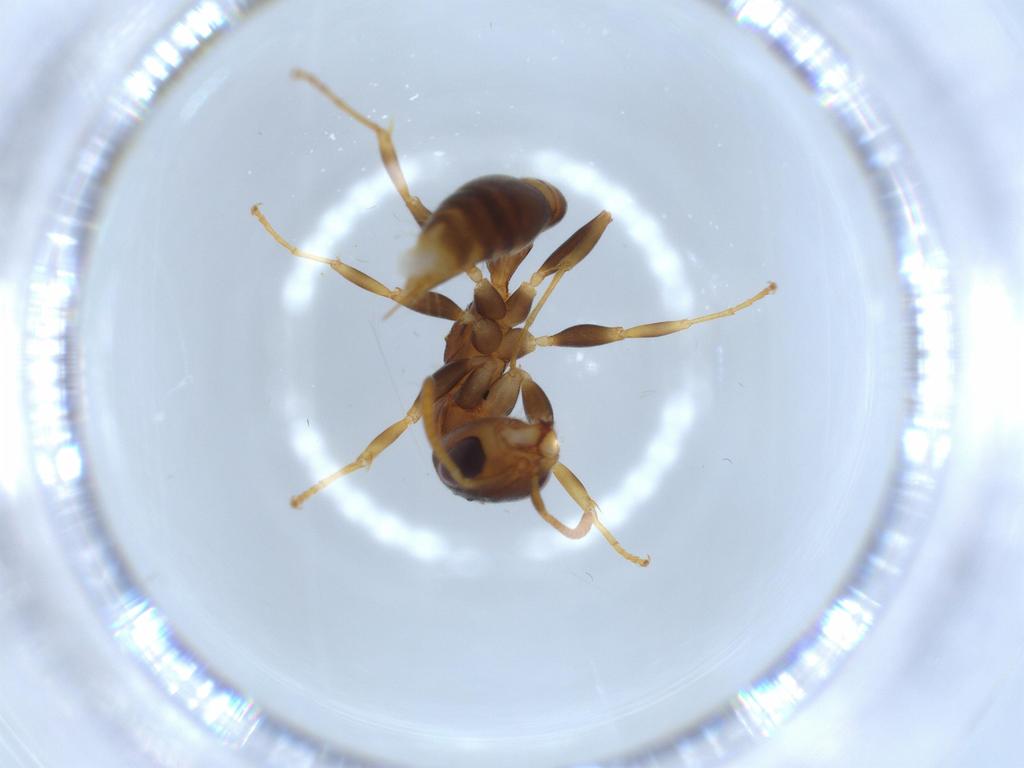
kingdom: Animalia
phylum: Arthropoda
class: Insecta
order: Hymenoptera
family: Formicidae
